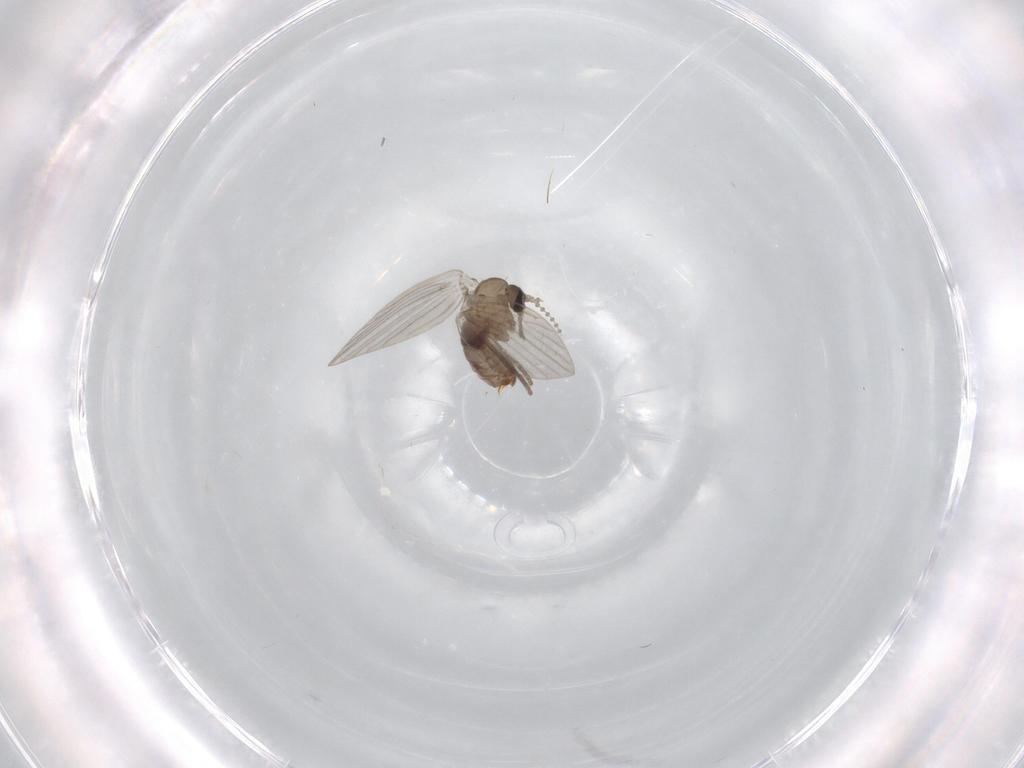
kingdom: Animalia
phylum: Arthropoda
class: Insecta
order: Diptera
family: Psychodidae
